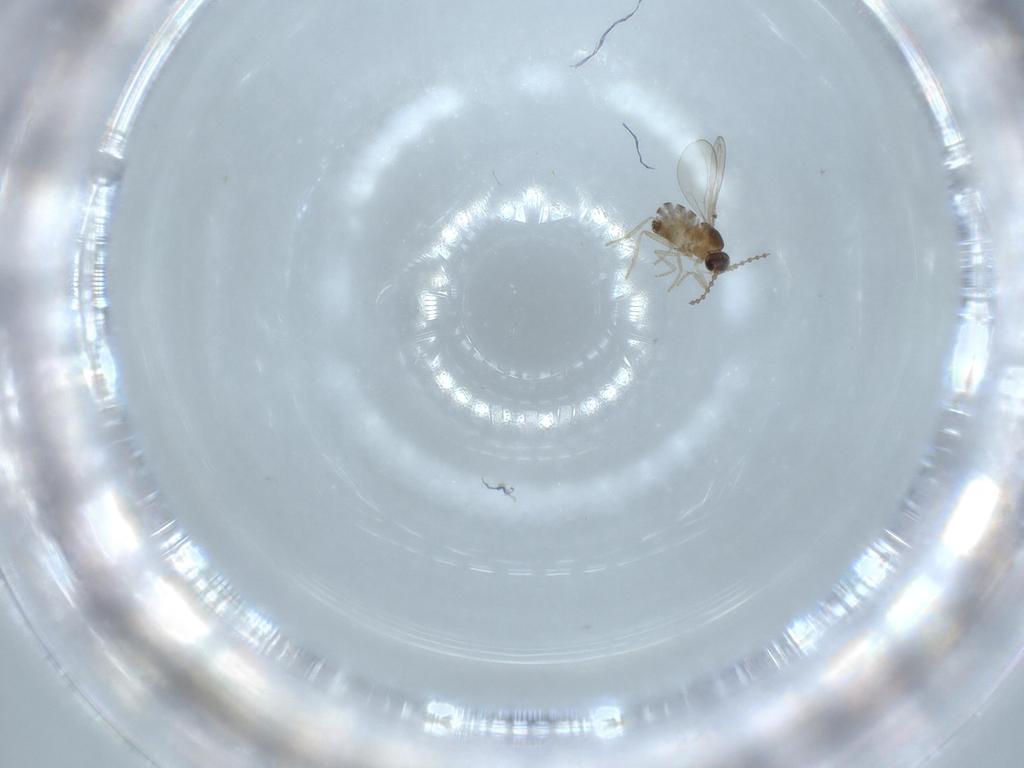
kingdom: Animalia
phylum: Arthropoda
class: Insecta
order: Diptera
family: Cecidomyiidae
